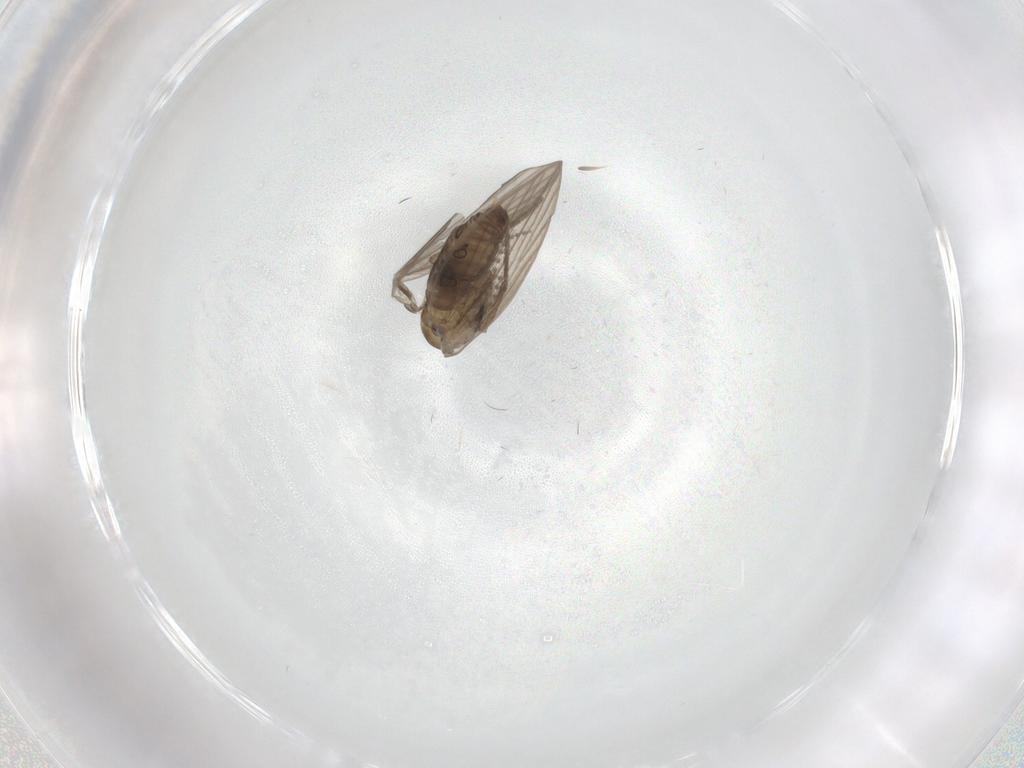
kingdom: Animalia
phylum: Arthropoda
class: Insecta
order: Diptera
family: Psychodidae
